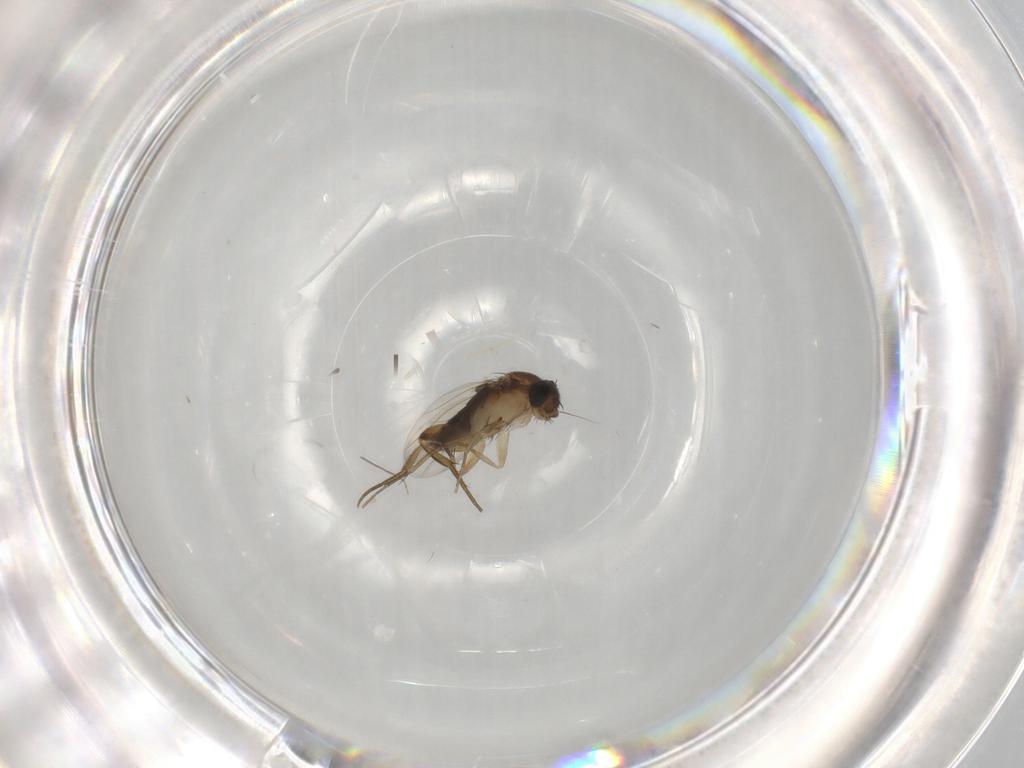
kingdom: Animalia
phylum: Arthropoda
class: Insecta
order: Diptera
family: Phoridae
